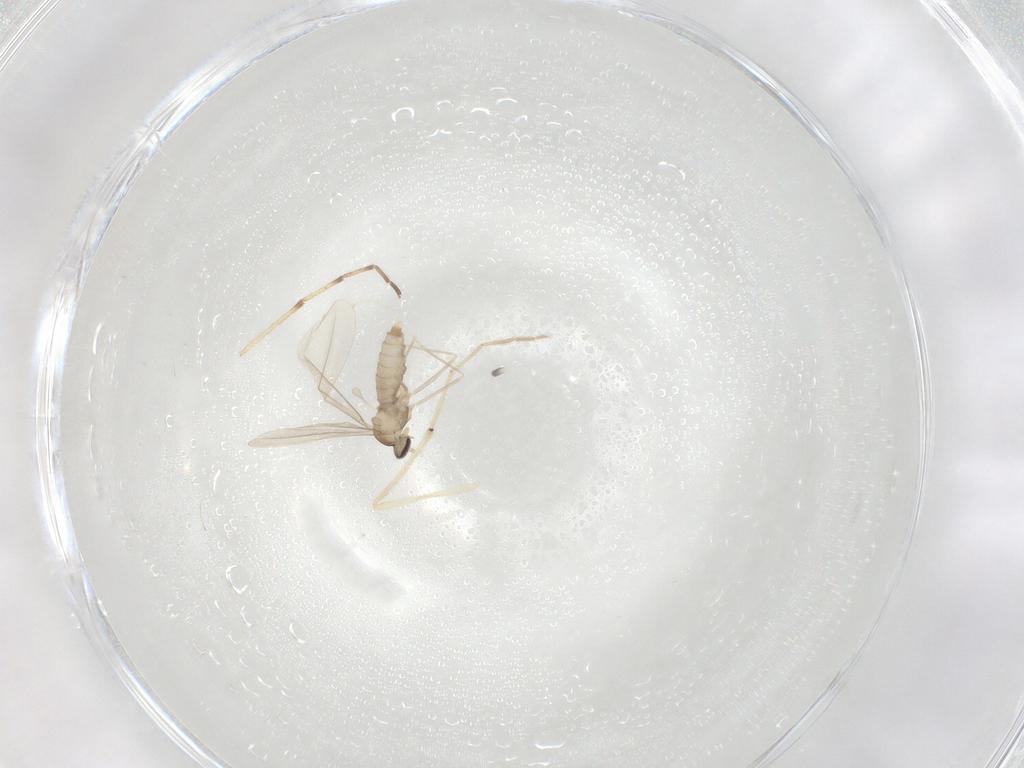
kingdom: Animalia
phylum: Arthropoda
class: Insecta
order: Diptera
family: Cecidomyiidae
